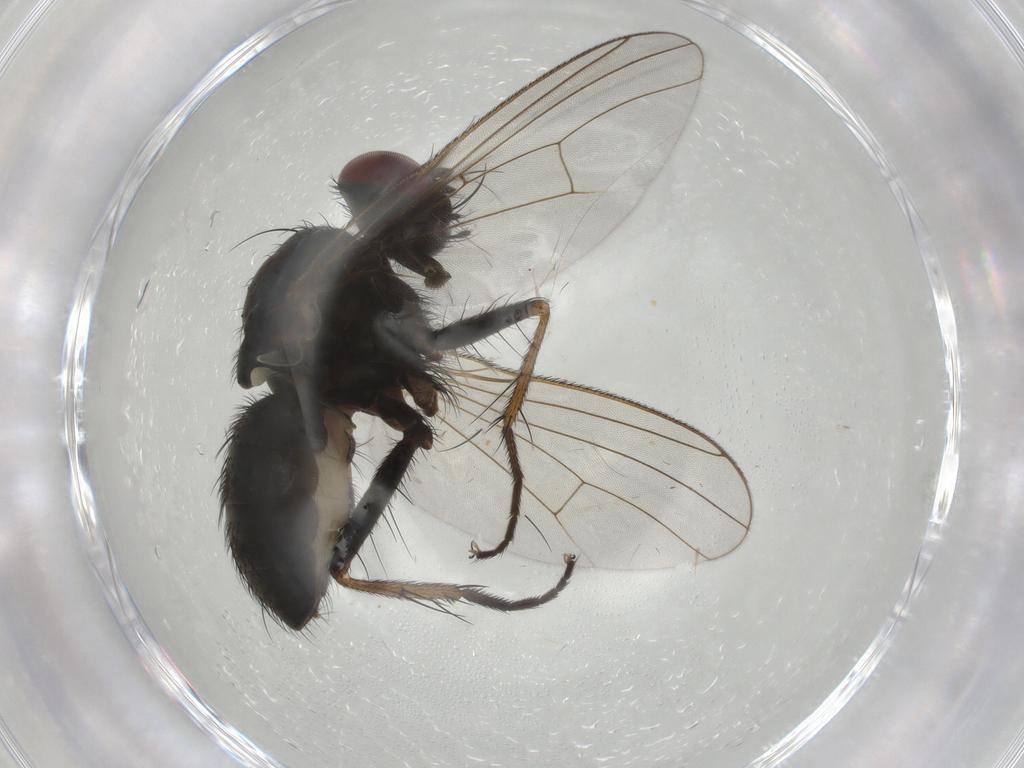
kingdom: Animalia
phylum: Arthropoda
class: Insecta
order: Diptera
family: Muscidae
